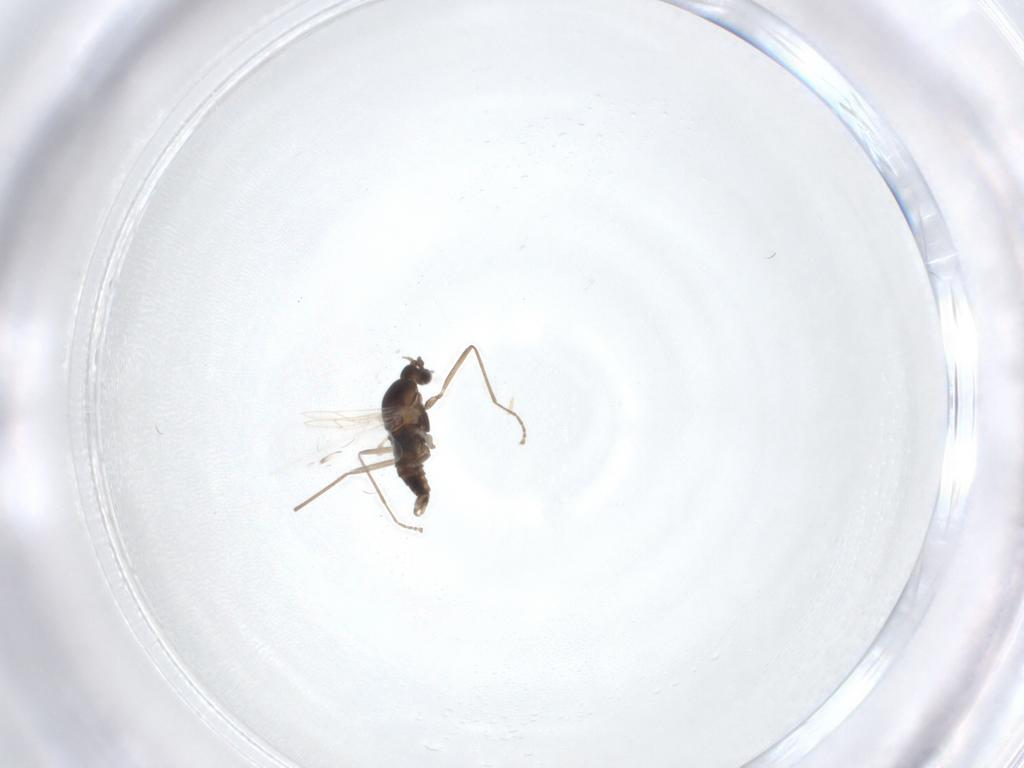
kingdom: Animalia
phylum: Arthropoda
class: Insecta
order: Diptera
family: Cecidomyiidae
